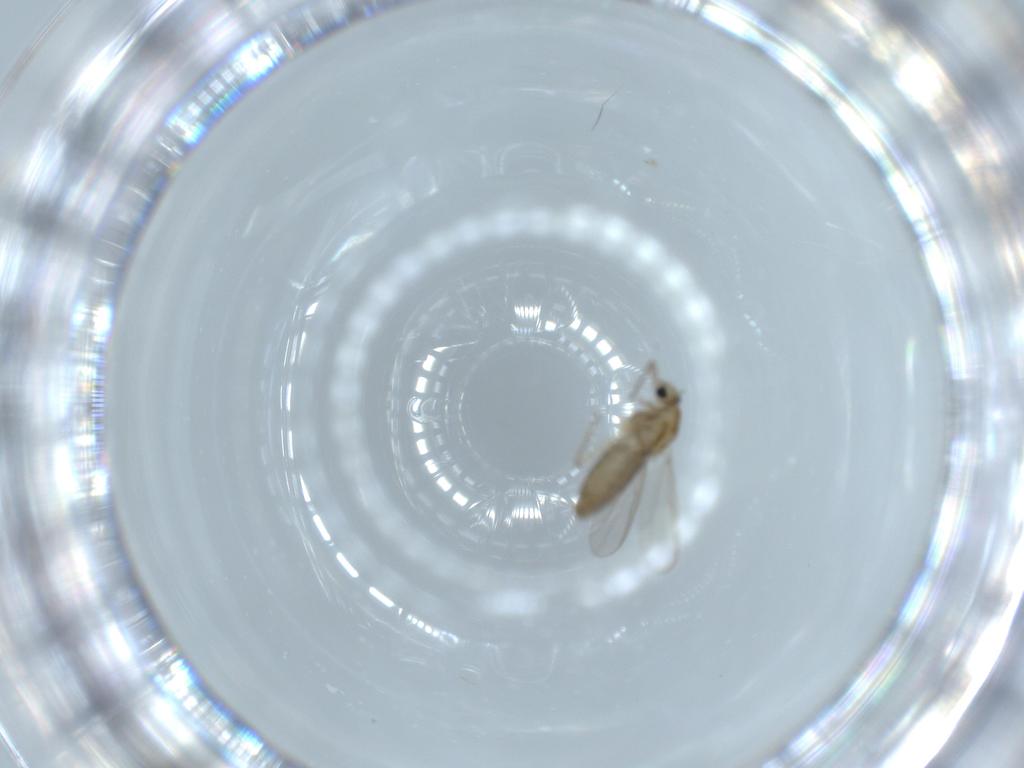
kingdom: Animalia
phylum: Arthropoda
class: Insecta
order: Diptera
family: Chironomidae
